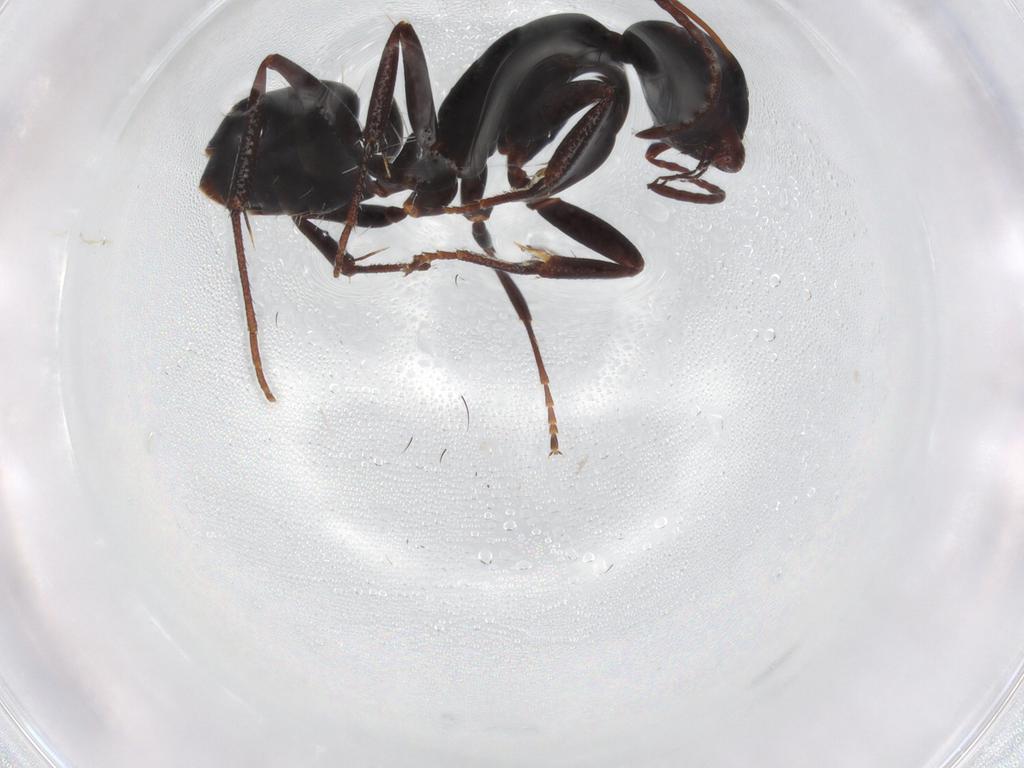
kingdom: Animalia
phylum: Arthropoda
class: Insecta
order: Hymenoptera
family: Formicidae
